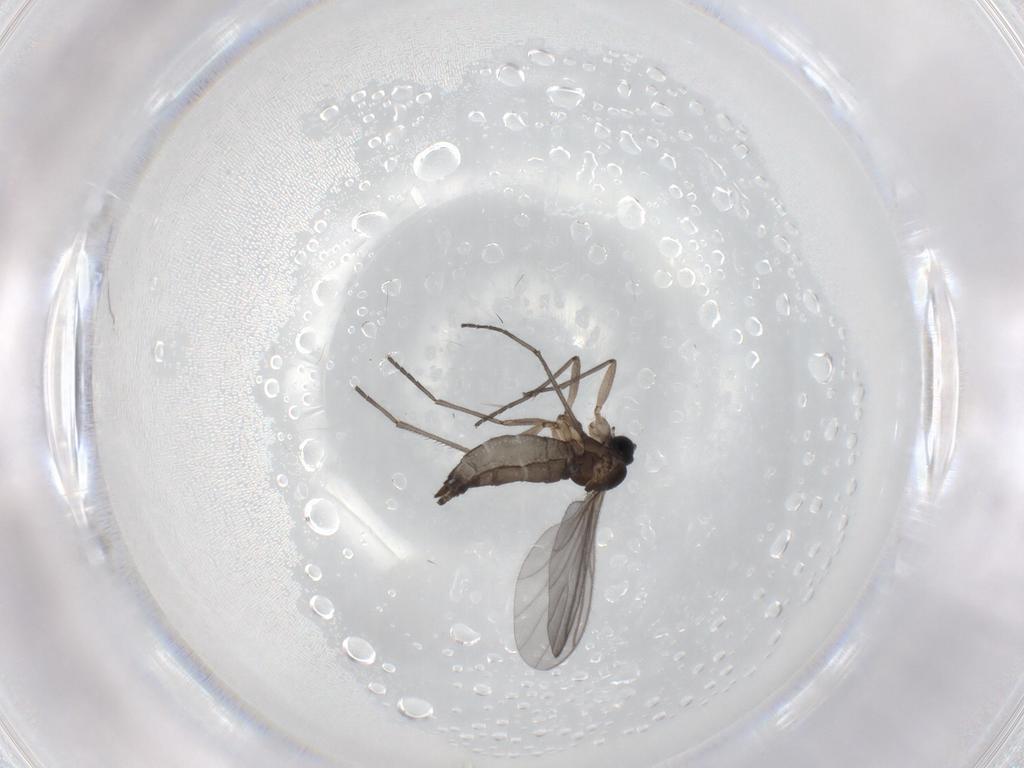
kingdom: Animalia
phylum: Arthropoda
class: Insecta
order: Diptera
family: Sciaridae
